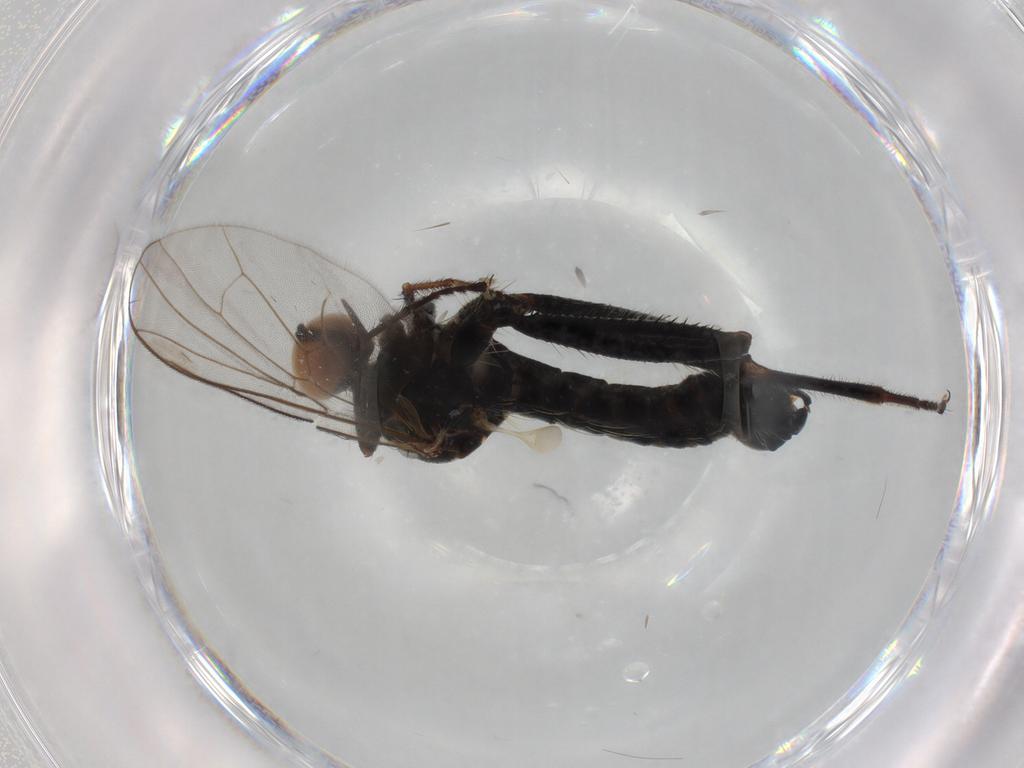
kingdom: Animalia
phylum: Arthropoda
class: Insecta
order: Diptera
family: Hybotidae
